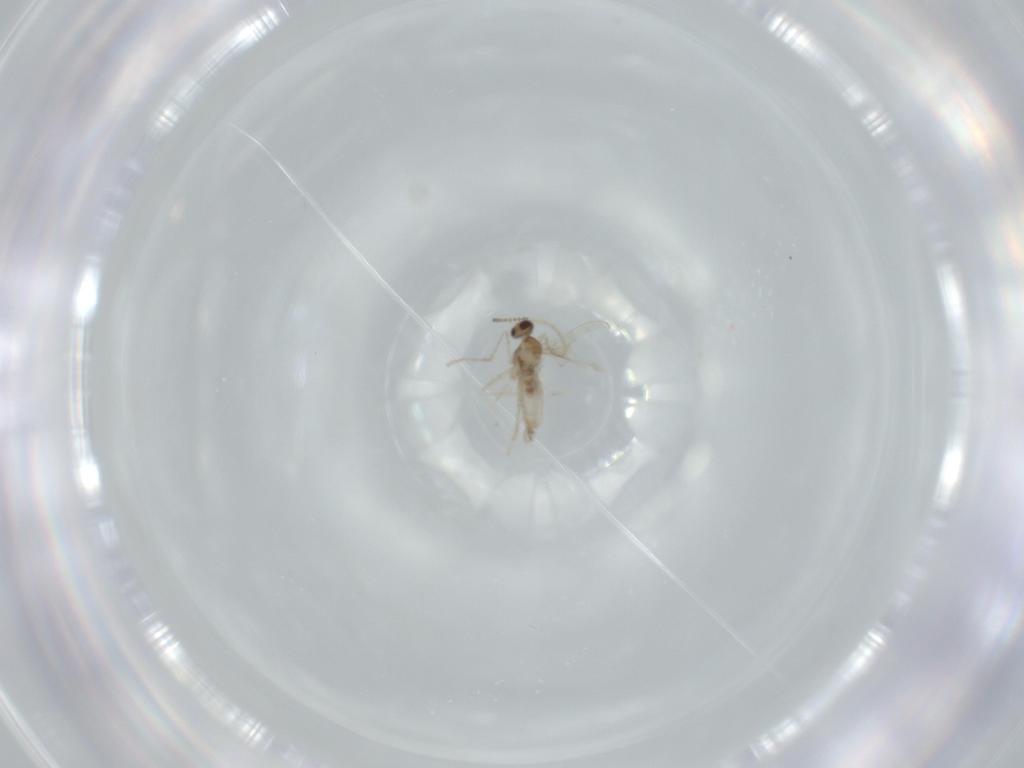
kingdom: Animalia
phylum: Arthropoda
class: Insecta
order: Diptera
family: Cecidomyiidae
